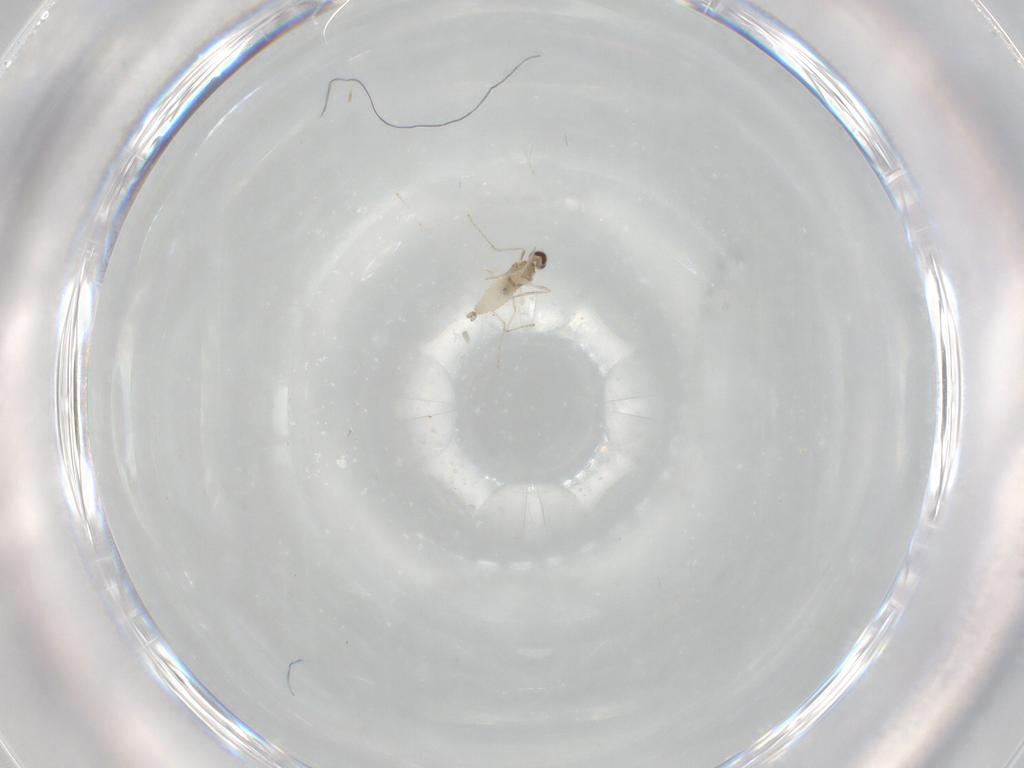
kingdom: Animalia
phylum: Arthropoda
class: Insecta
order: Diptera
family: Cecidomyiidae
